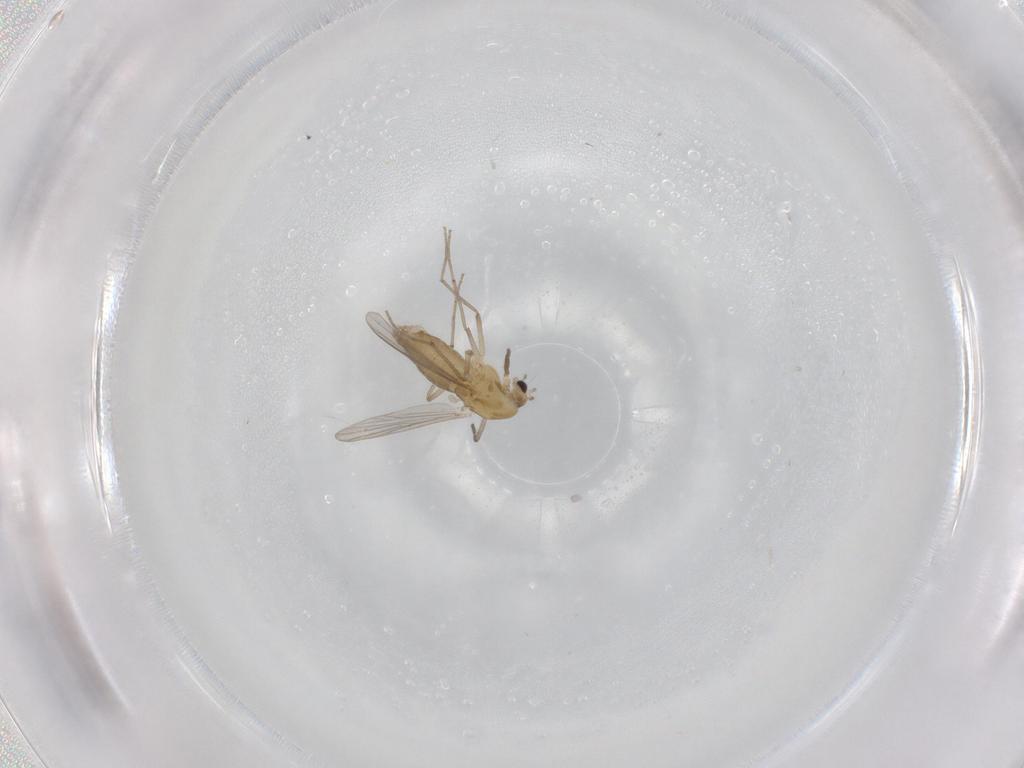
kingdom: Animalia
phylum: Arthropoda
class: Insecta
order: Diptera
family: Chironomidae
